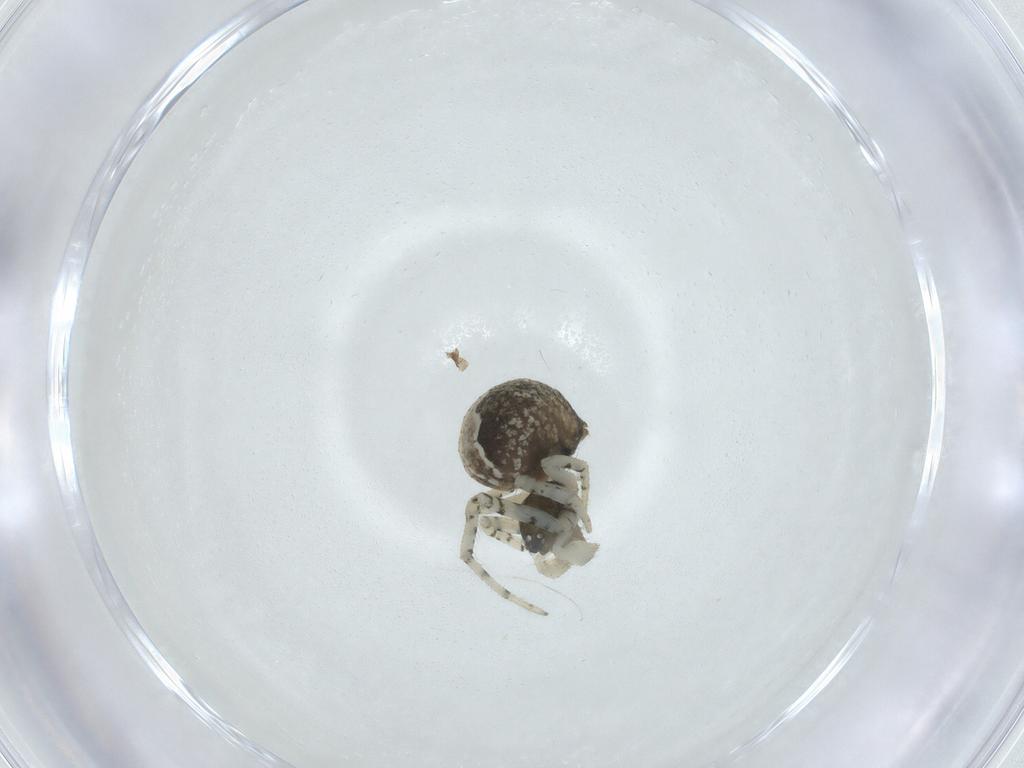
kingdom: Animalia
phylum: Arthropoda
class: Arachnida
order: Araneae
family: Theridiidae
